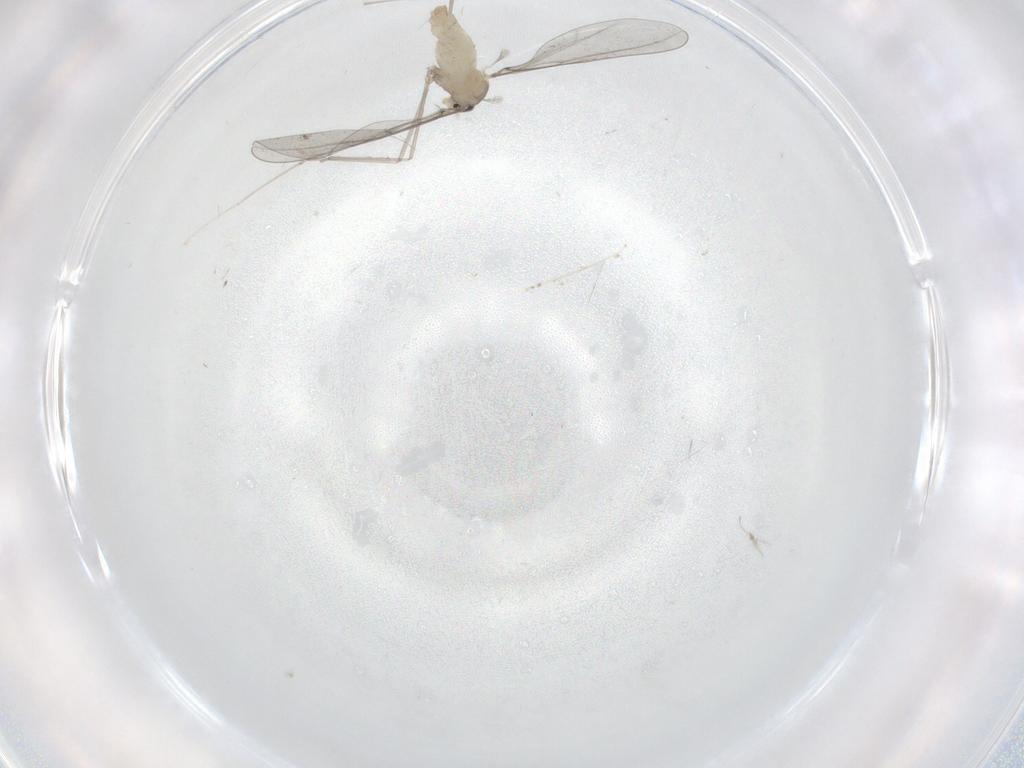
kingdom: Animalia
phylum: Arthropoda
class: Insecta
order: Diptera
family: Cecidomyiidae
